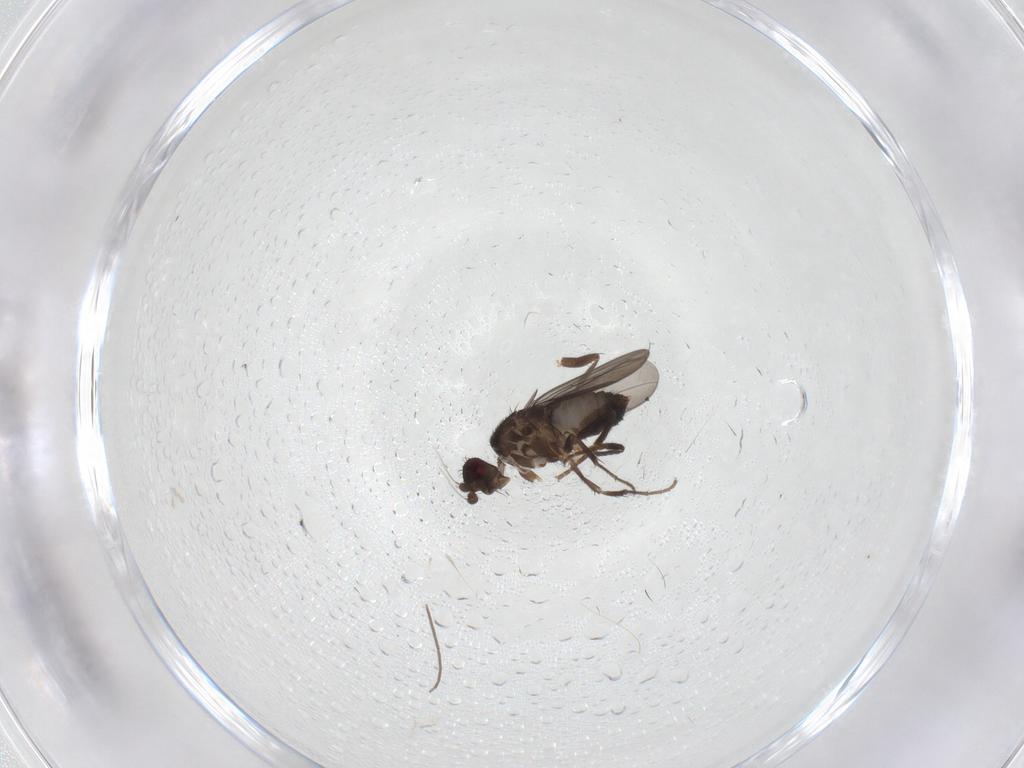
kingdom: Animalia
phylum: Arthropoda
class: Insecta
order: Diptera
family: Sphaeroceridae
